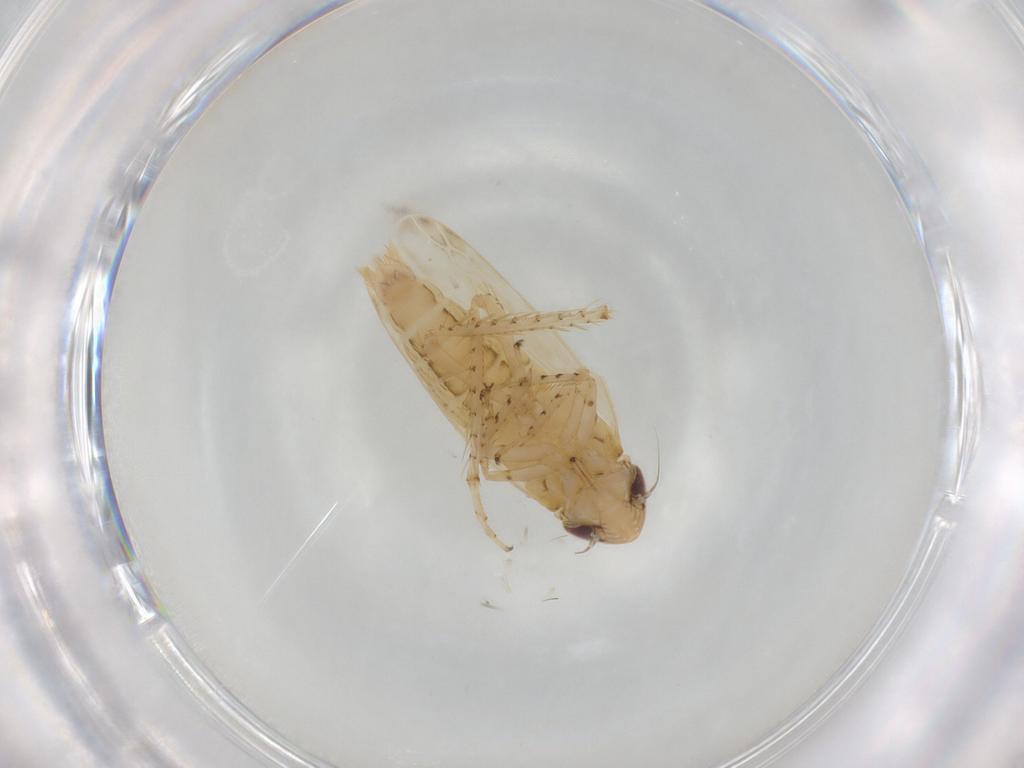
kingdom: Animalia
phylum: Arthropoda
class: Insecta
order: Hemiptera
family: Cicadellidae
